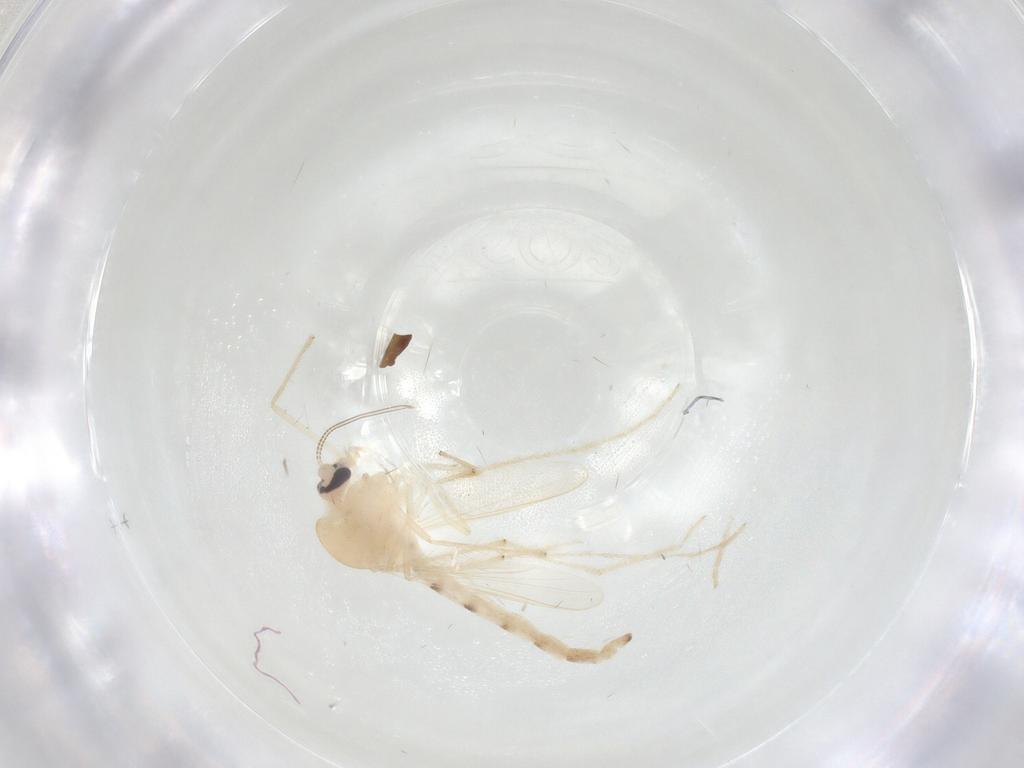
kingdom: Animalia
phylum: Arthropoda
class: Insecta
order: Diptera
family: Chironomidae
